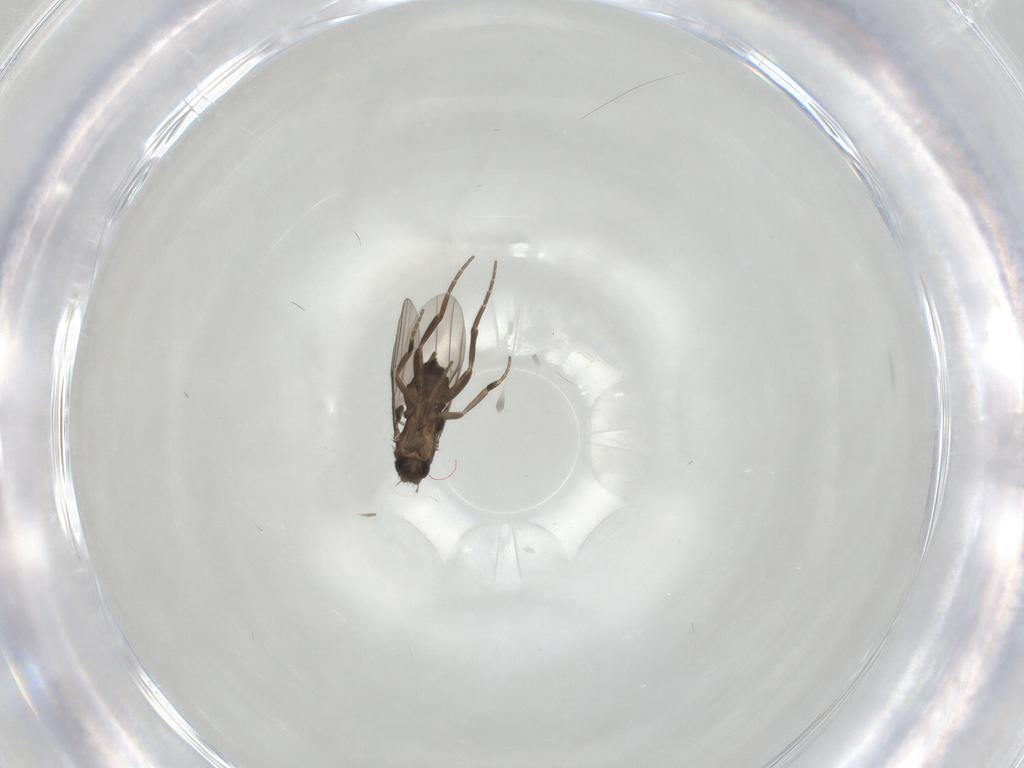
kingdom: Animalia
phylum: Arthropoda
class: Insecta
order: Diptera
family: Phoridae
